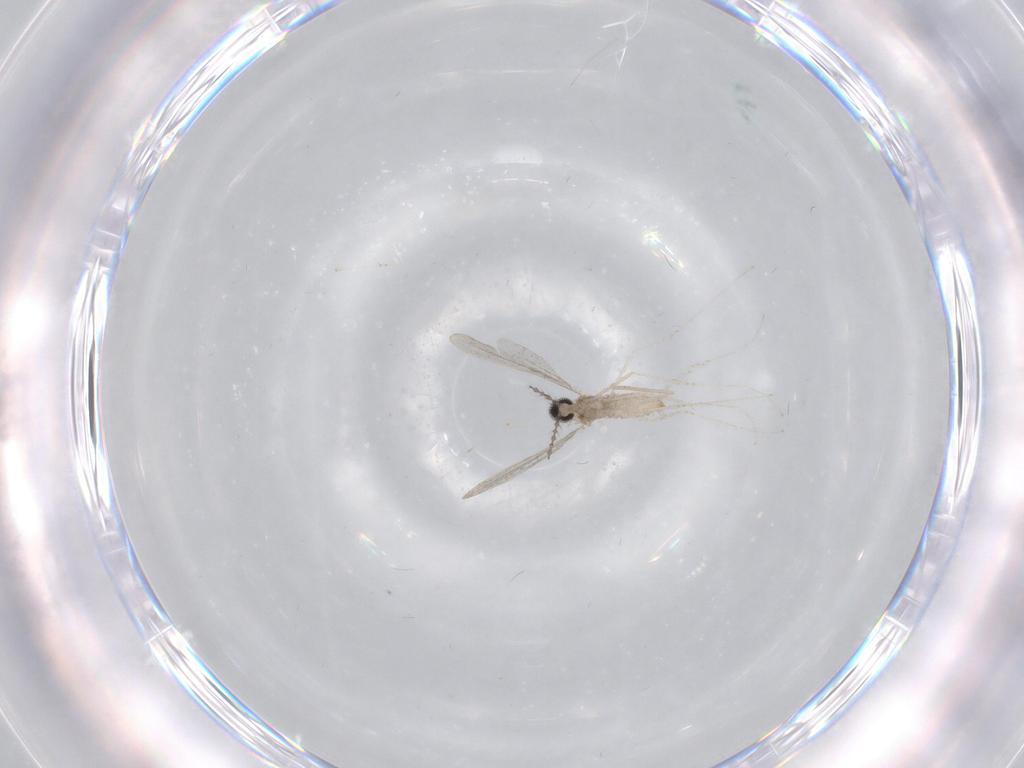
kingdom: Animalia
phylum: Arthropoda
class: Insecta
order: Diptera
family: Cecidomyiidae
